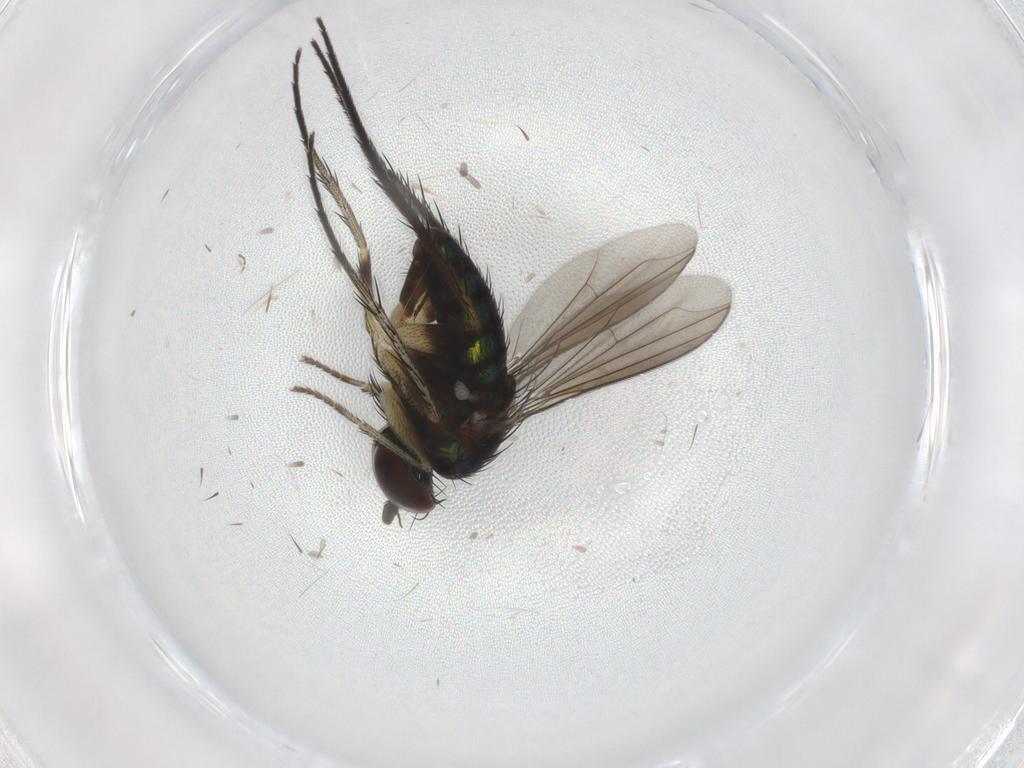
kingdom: Animalia
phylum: Arthropoda
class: Insecta
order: Diptera
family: Dolichopodidae
